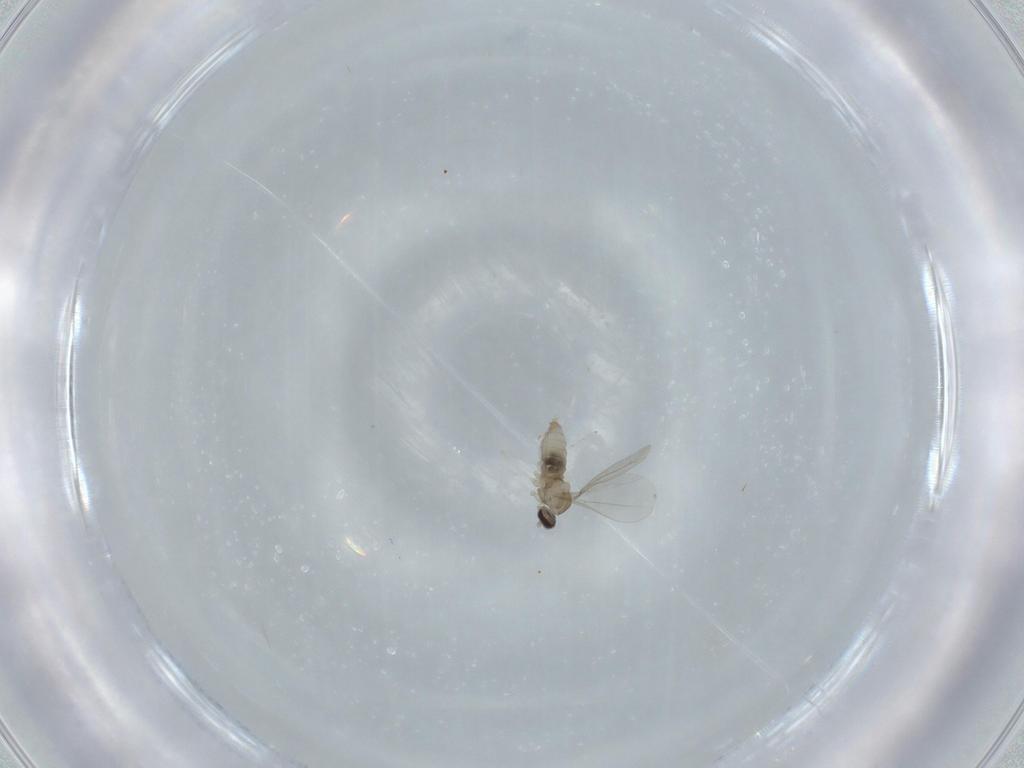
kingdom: Animalia
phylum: Arthropoda
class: Insecta
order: Diptera
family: Cecidomyiidae
